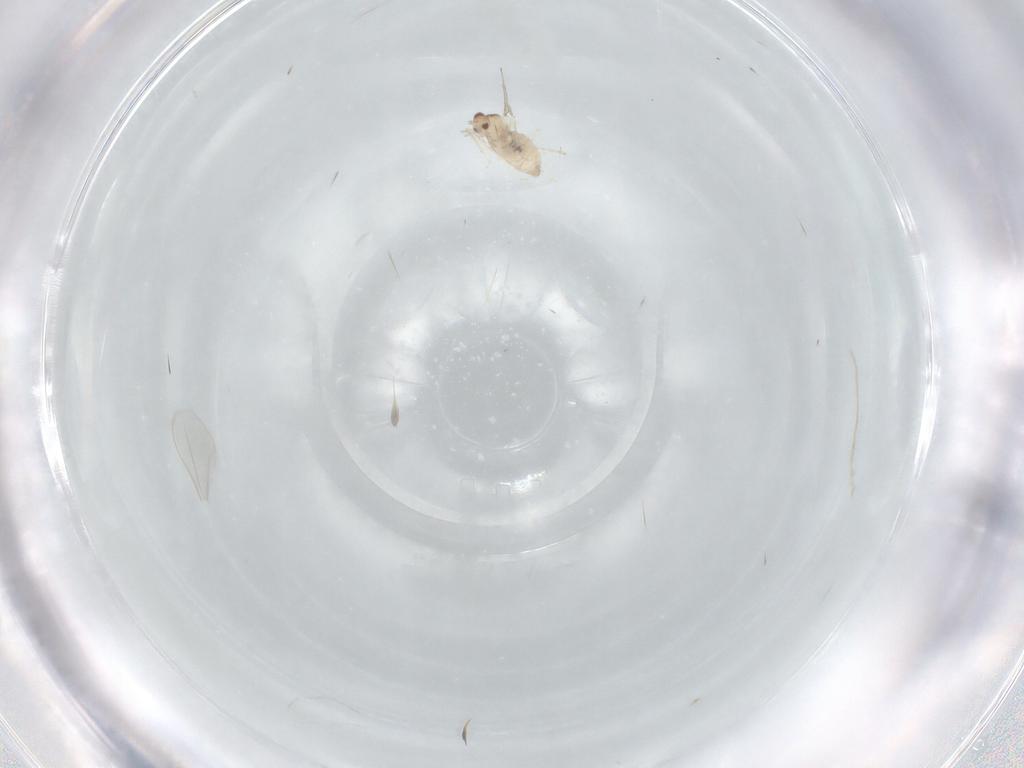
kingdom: Animalia
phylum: Arthropoda
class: Insecta
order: Diptera
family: Cecidomyiidae
